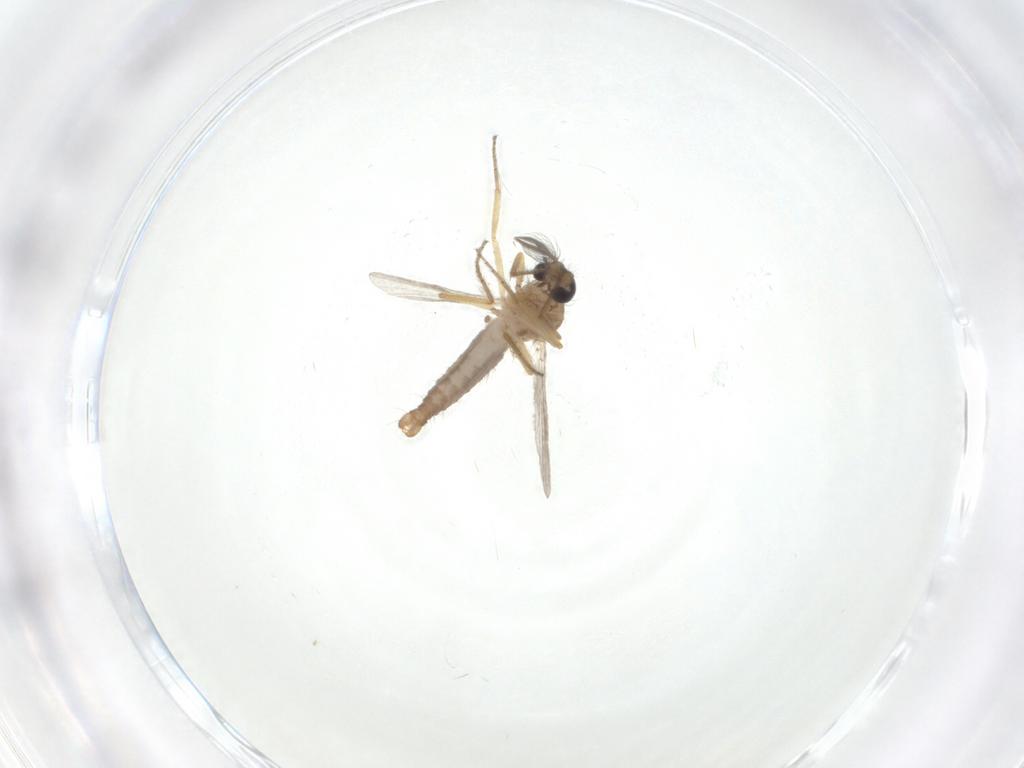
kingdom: Animalia
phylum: Arthropoda
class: Insecta
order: Diptera
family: Ceratopogonidae
